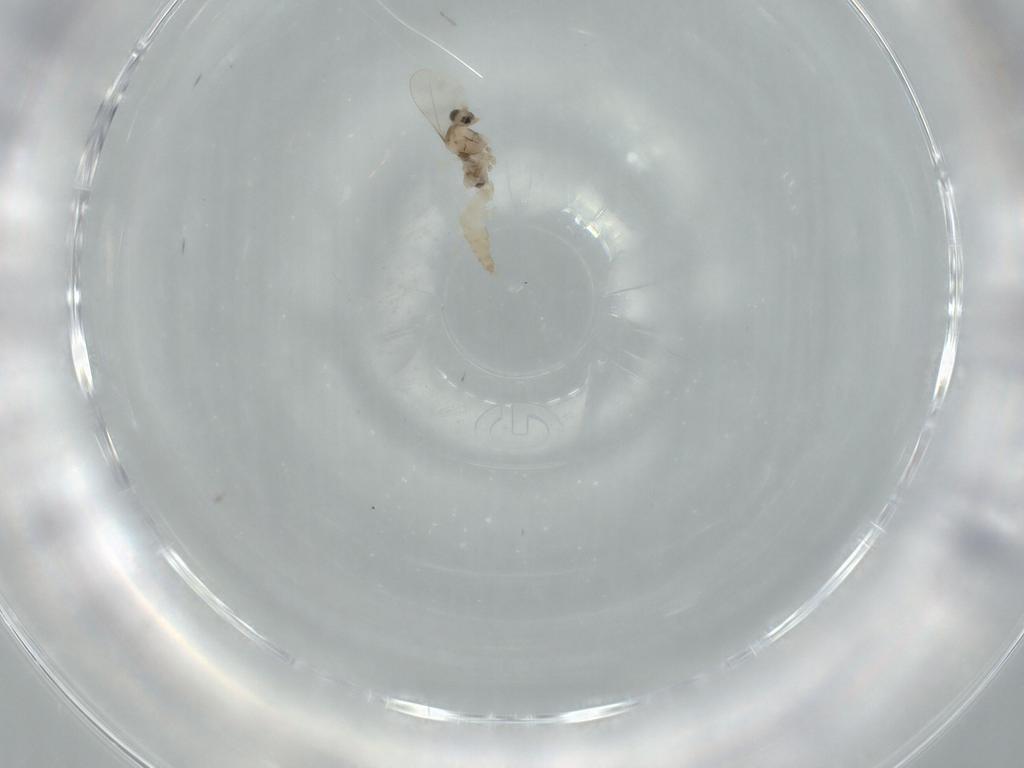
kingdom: Animalia
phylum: Arthropoda
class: Insecta
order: Diptera
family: Cecidomyiidae
